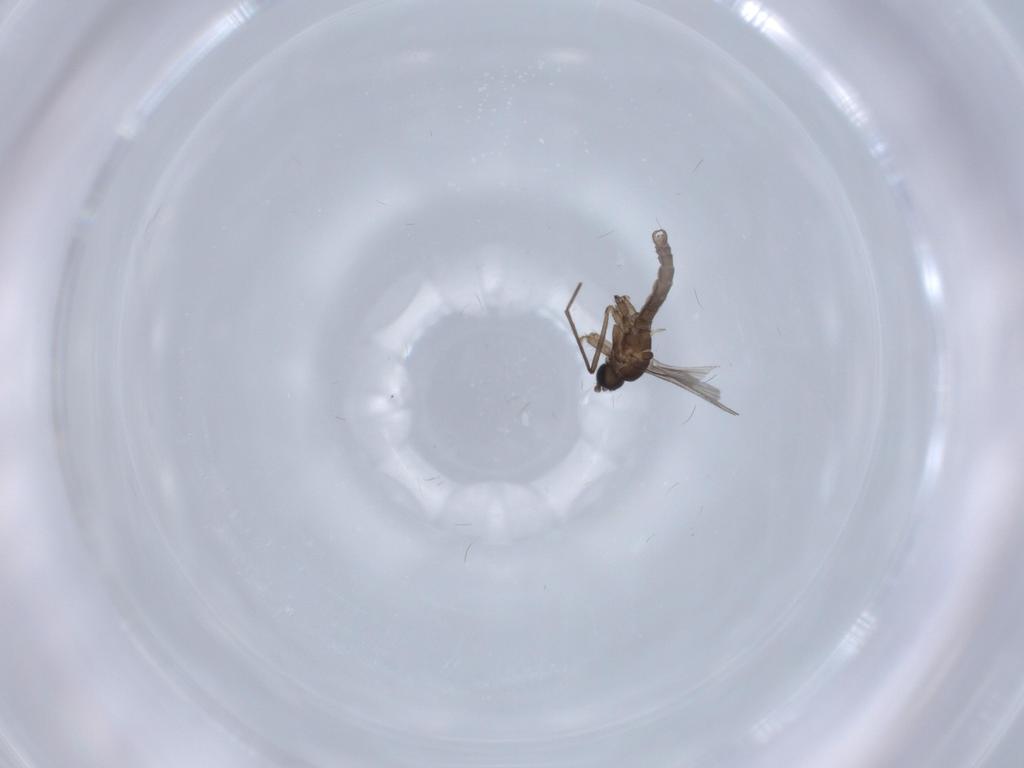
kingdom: Animalia
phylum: Arthropoda
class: Insecta
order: Diptera
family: Sciaridae
